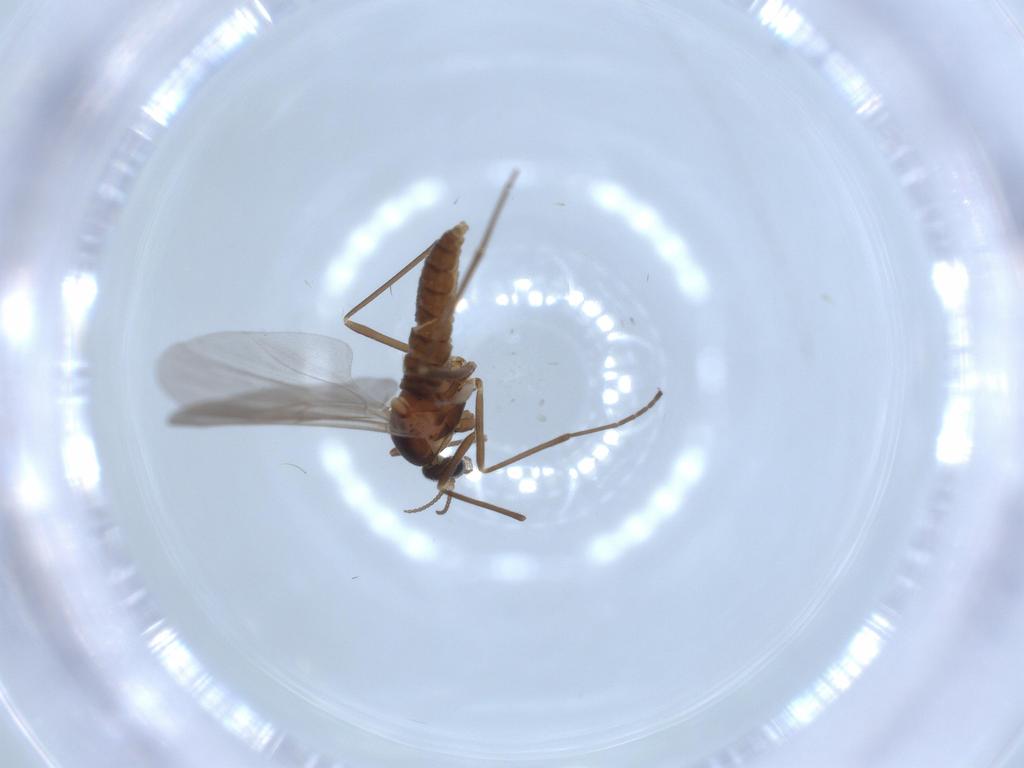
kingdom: Animalia
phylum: Arthropoda
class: Insecta
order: Diptera
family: Cecidomyiidae
